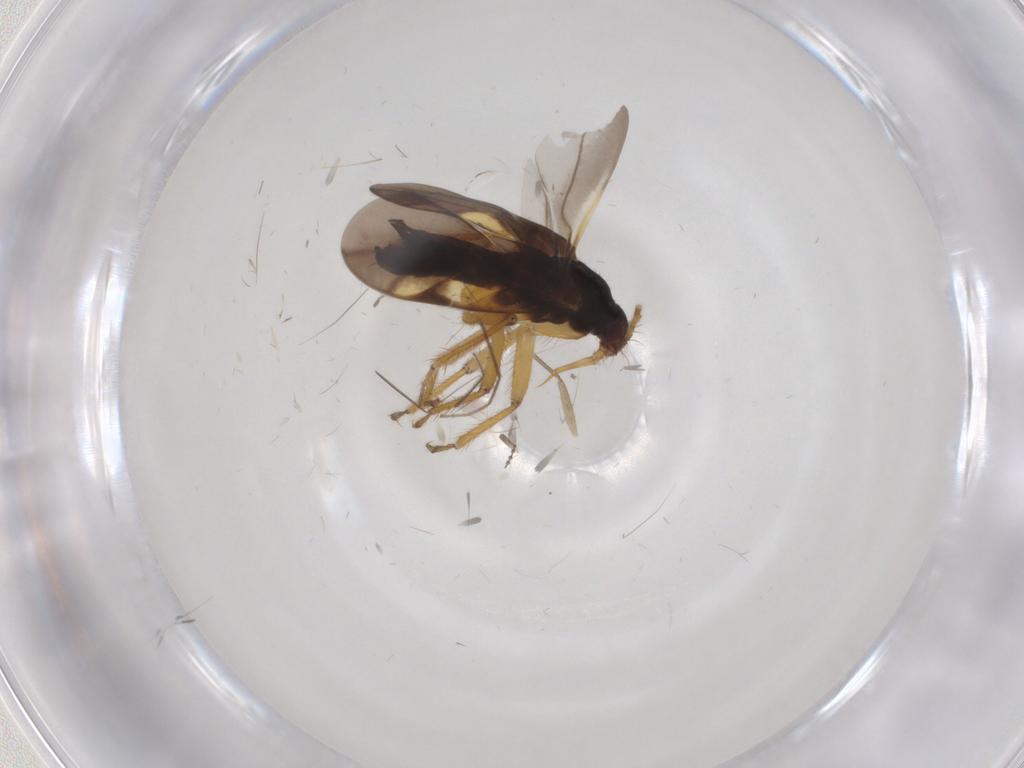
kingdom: Animalia
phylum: Arthropoda
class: Insecta
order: Hemiptera
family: Ceratocombidae
